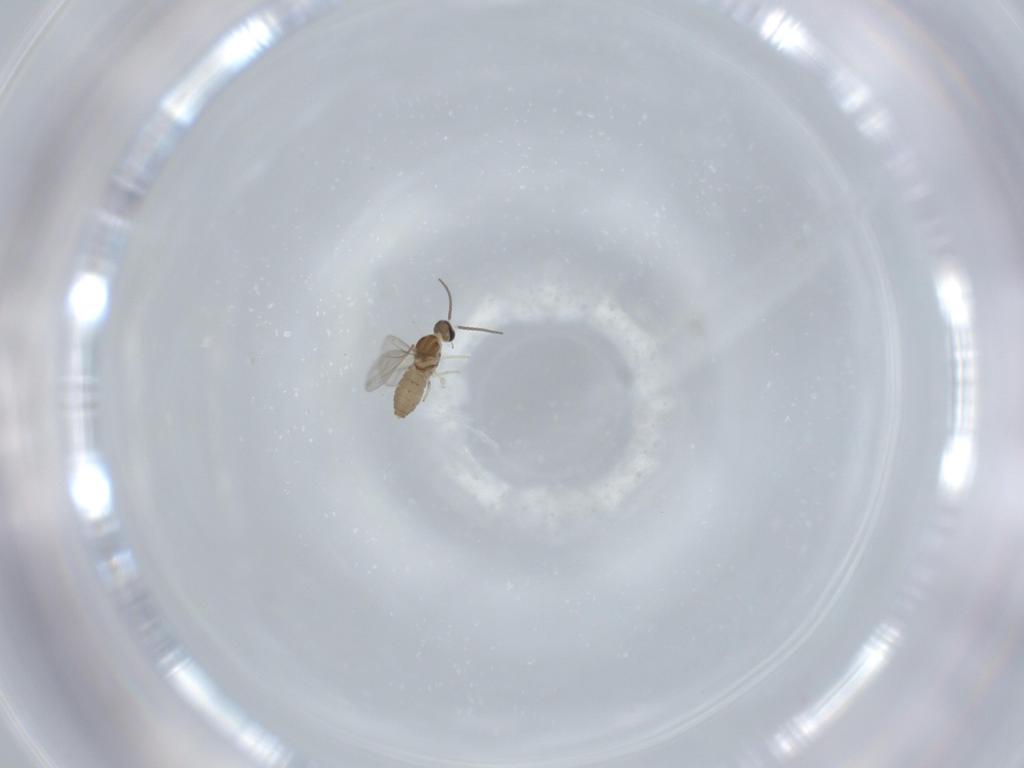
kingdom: Animalia
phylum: Arthropoda
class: Insecta
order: Diptera
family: Cecidomyiidae
